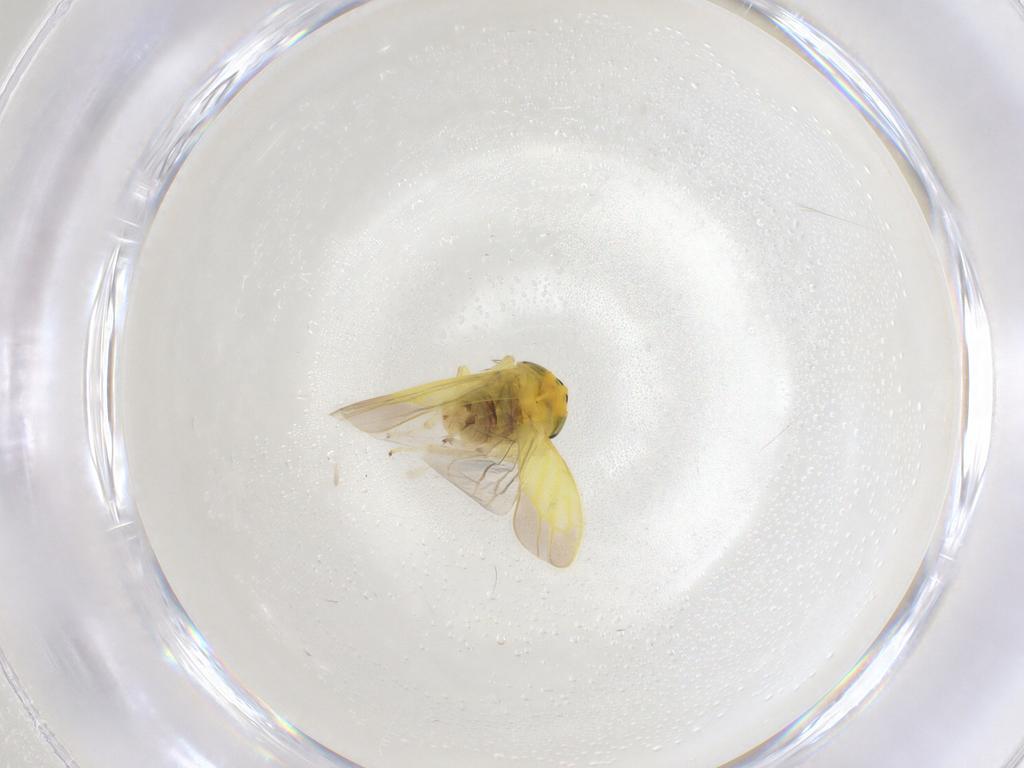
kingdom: Animalia
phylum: Arthropoda
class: Insecta
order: Hemiptera
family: Cicadellidae
